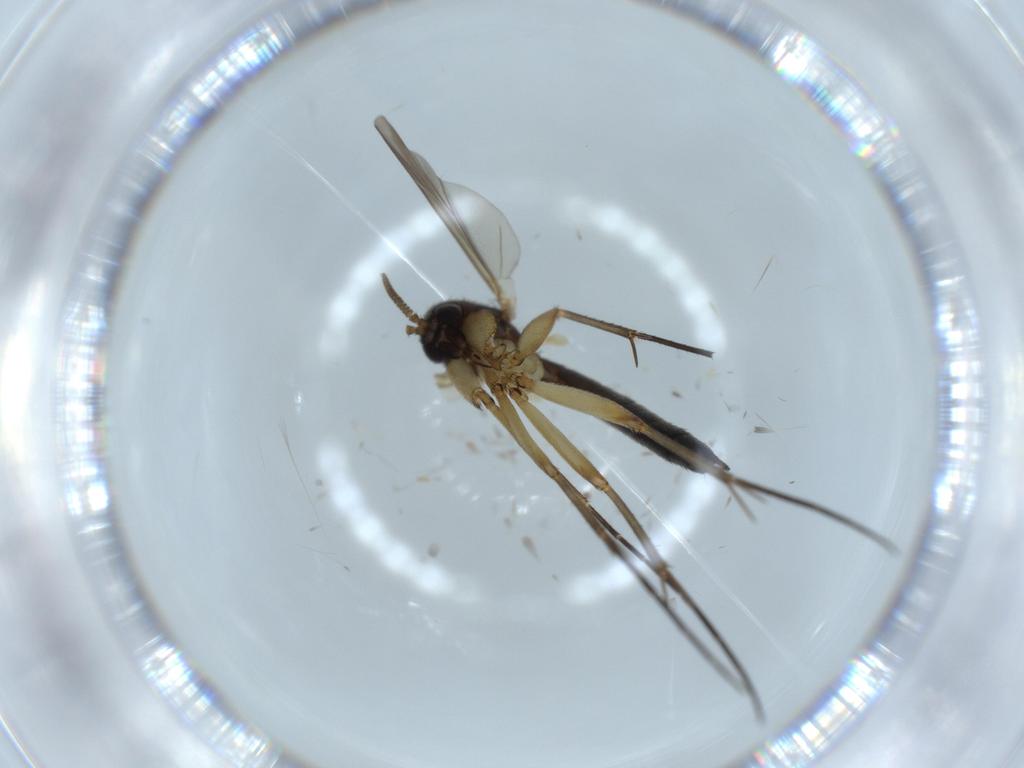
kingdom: Animalia
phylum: Arthropoda
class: Insecta
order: Diptera
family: Mycetophilidae
